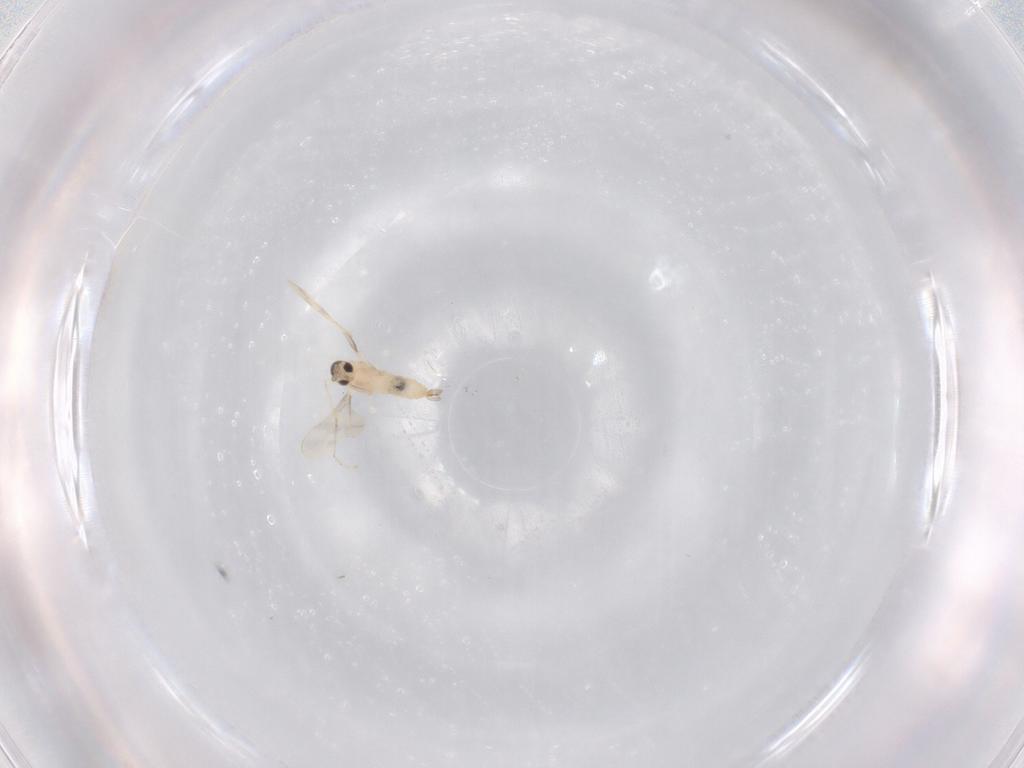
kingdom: Animalia
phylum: Arthropoda
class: Insecta
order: Diptera
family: Cecidomyiidae
